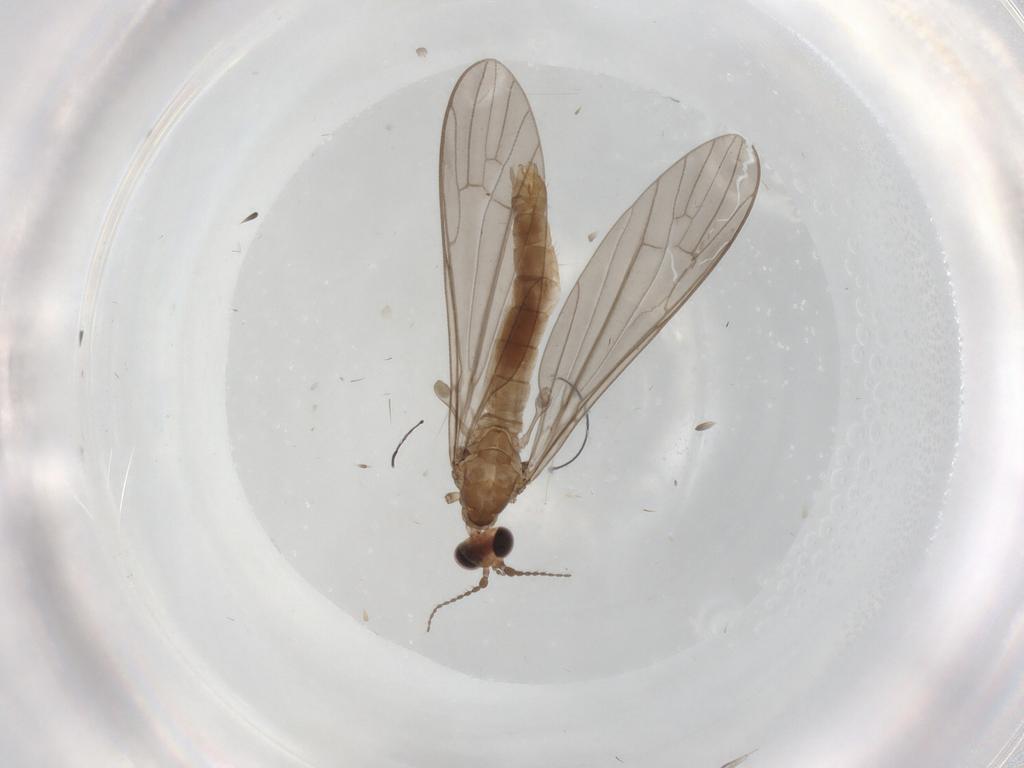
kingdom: Animalia
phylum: Arthropoda
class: Insecta
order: Diptera
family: Limoniidae
